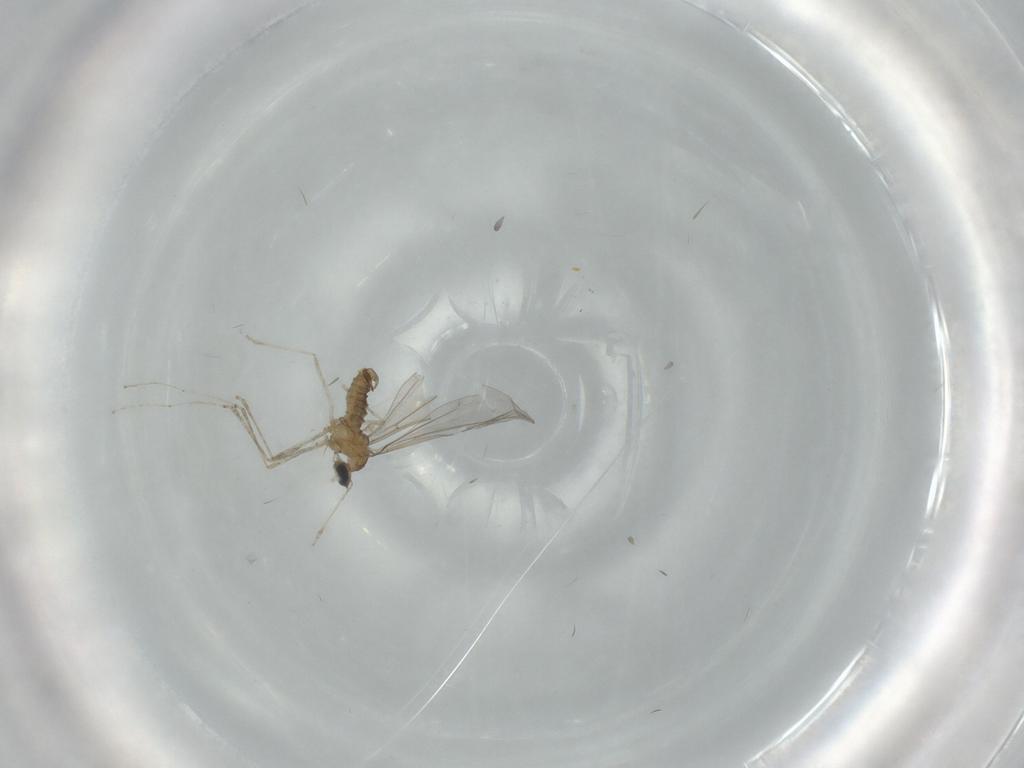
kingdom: Animalia
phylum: Arthropoda
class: Insecta
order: Diptera
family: Cecidomyiidae
